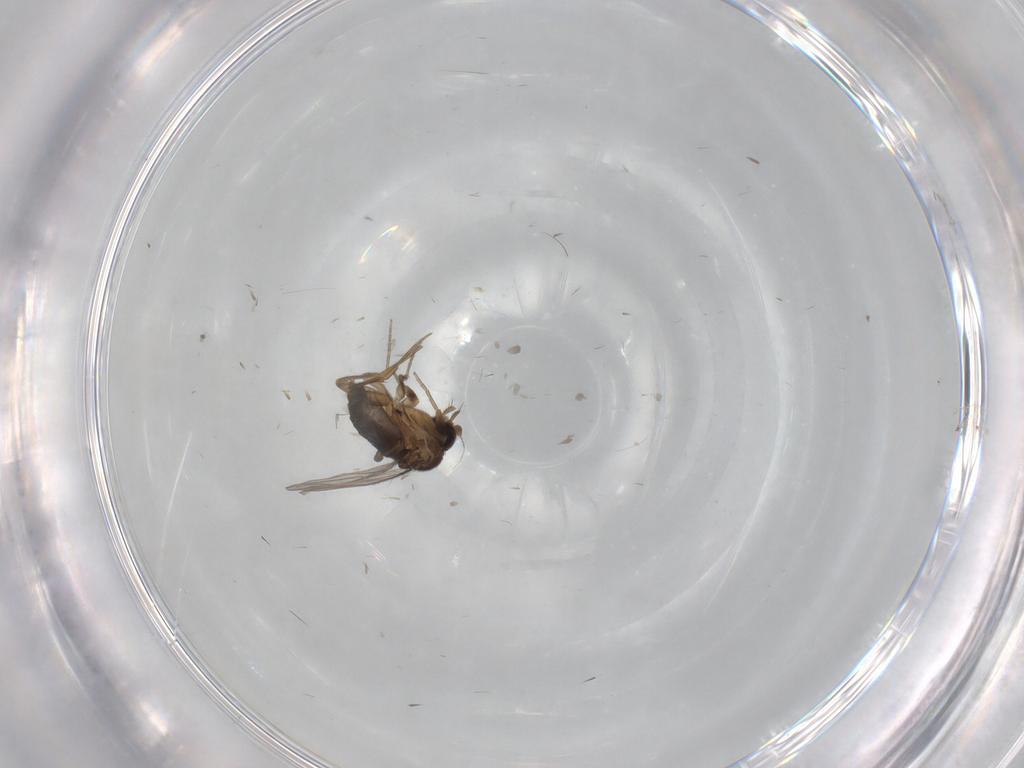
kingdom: Animalia
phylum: Arthropoda
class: Insecta
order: Diptera
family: Phoridae
